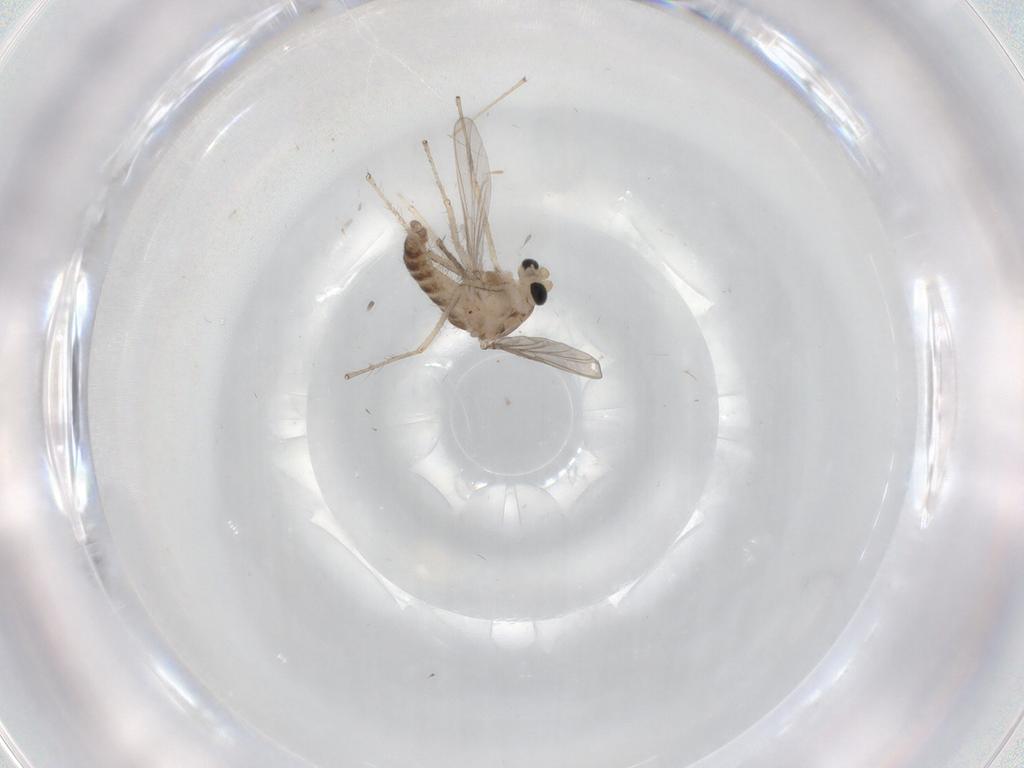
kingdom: Animalia
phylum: Arthropoda
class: Insecta
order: Diptera
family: Chironomidae
